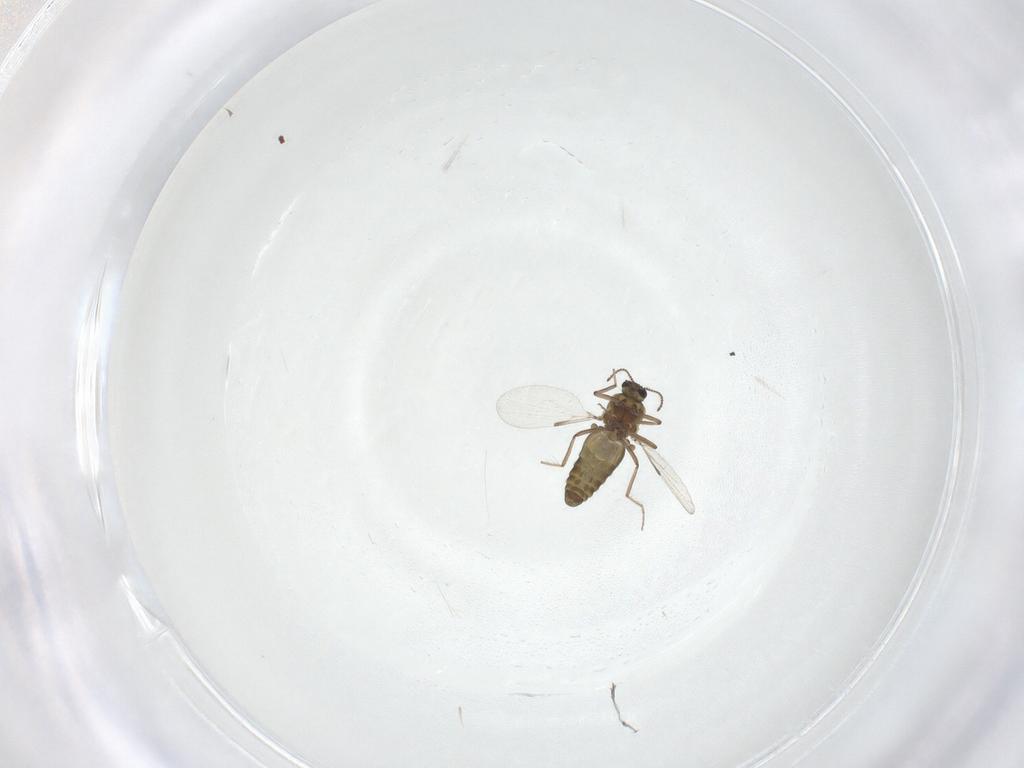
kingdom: Animalia
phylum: Arthropoda
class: Insecta
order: Diptera
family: Ceratopogonidae
